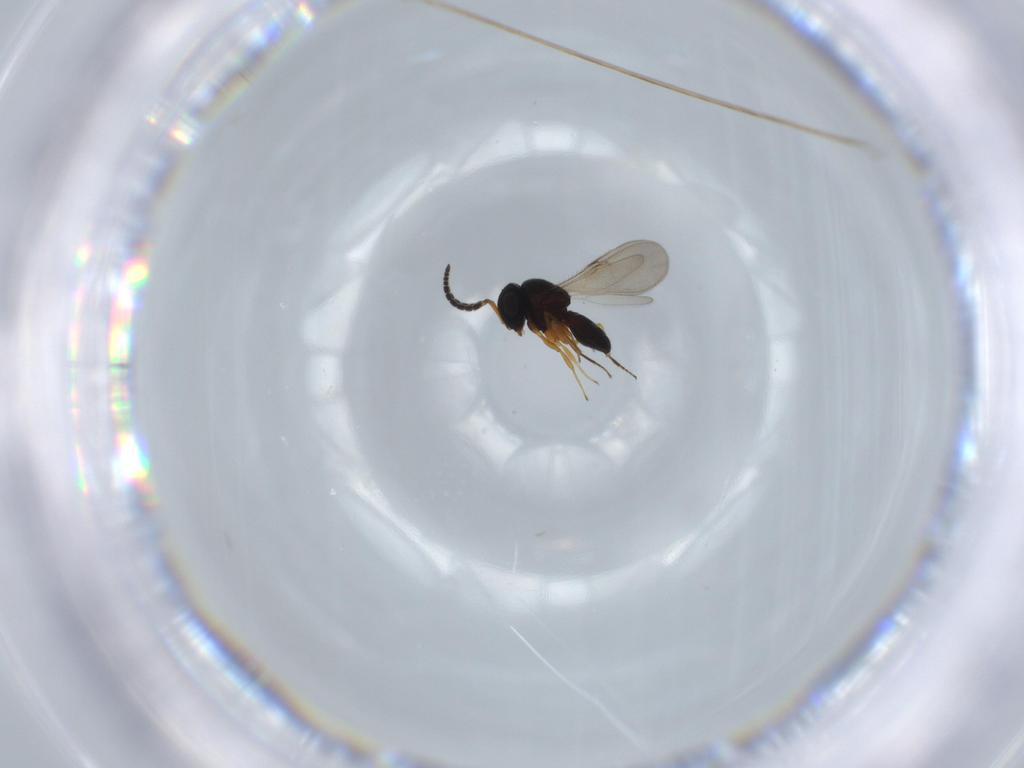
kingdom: Animalia
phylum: Arthropoda
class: Insecta
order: Hymenoptera
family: Scelionidae
